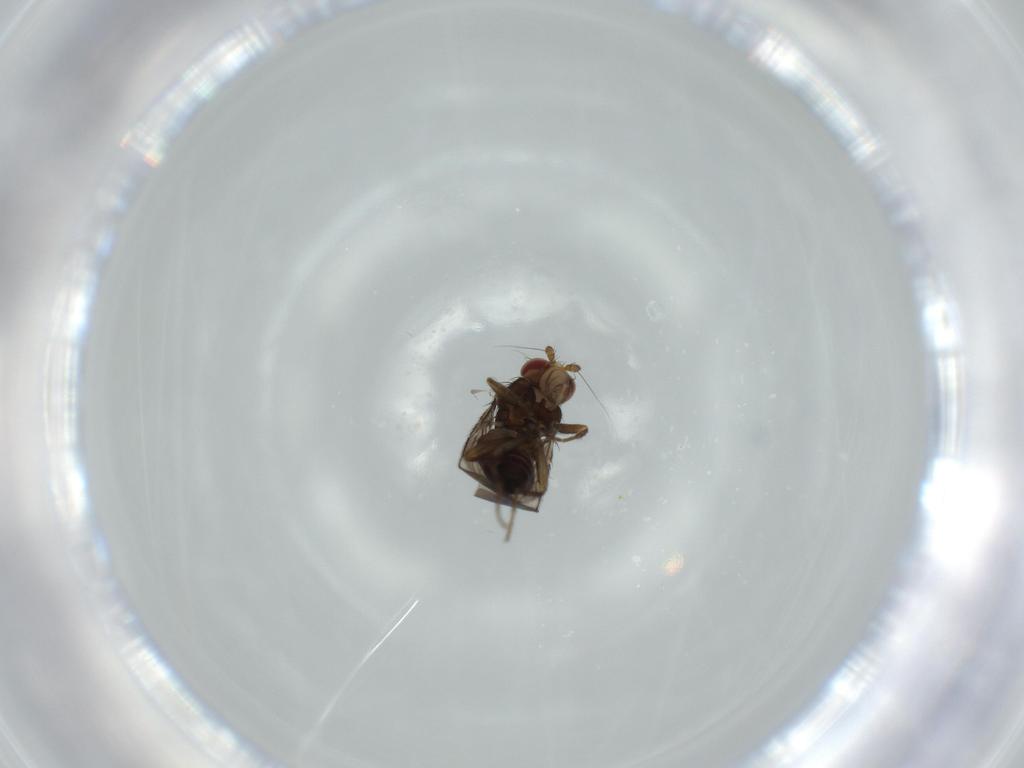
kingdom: Animalia
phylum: Arthropoda
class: Insecta
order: Diptera
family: Sphaeroceridae
